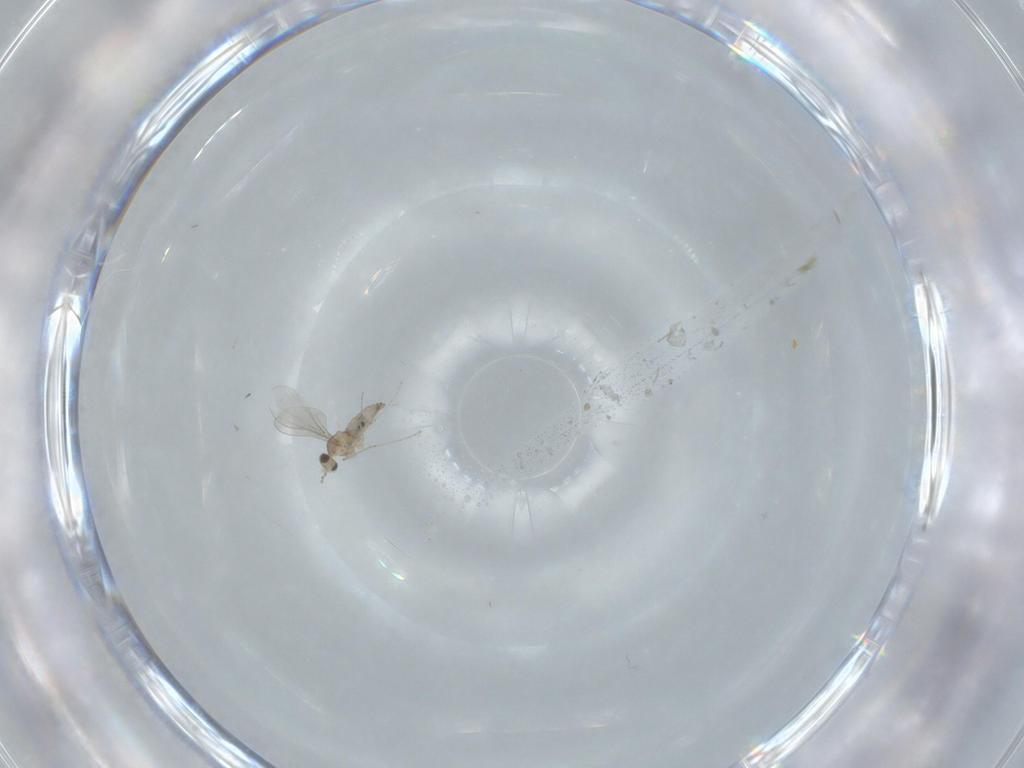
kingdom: Animalia
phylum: Arthropoda
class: Insecta
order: Diptera
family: Cecidomyiidae
